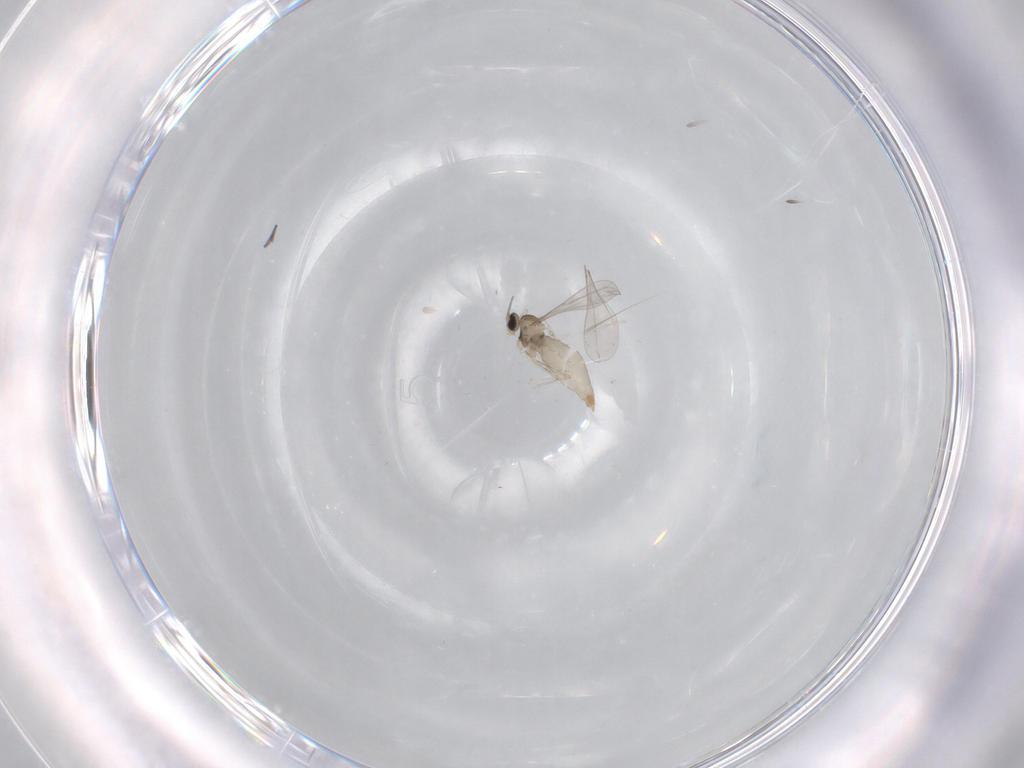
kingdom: Animalia
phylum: Arthropoda
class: Insecta
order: Diptera
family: Cecidomyiidae
